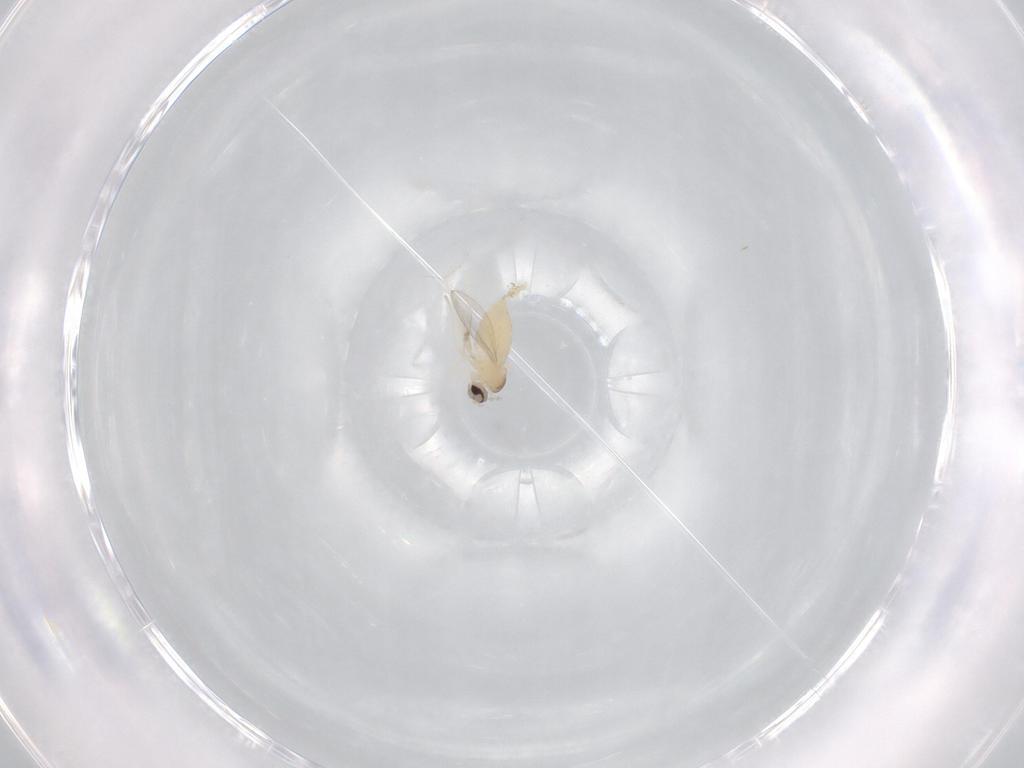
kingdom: Animalia
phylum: Arthropoda
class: Insecta
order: Diptera
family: Cecidomyiidae
